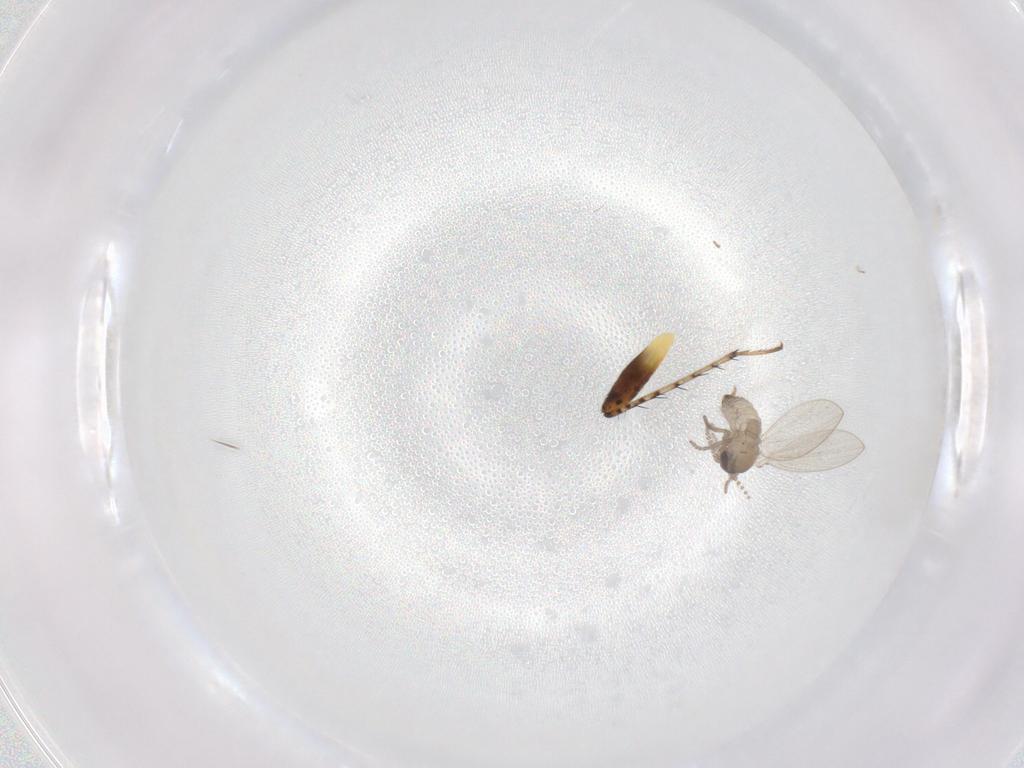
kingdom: Animalia
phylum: Arthropoda
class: Insecta
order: Diptera
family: Psychodidae
